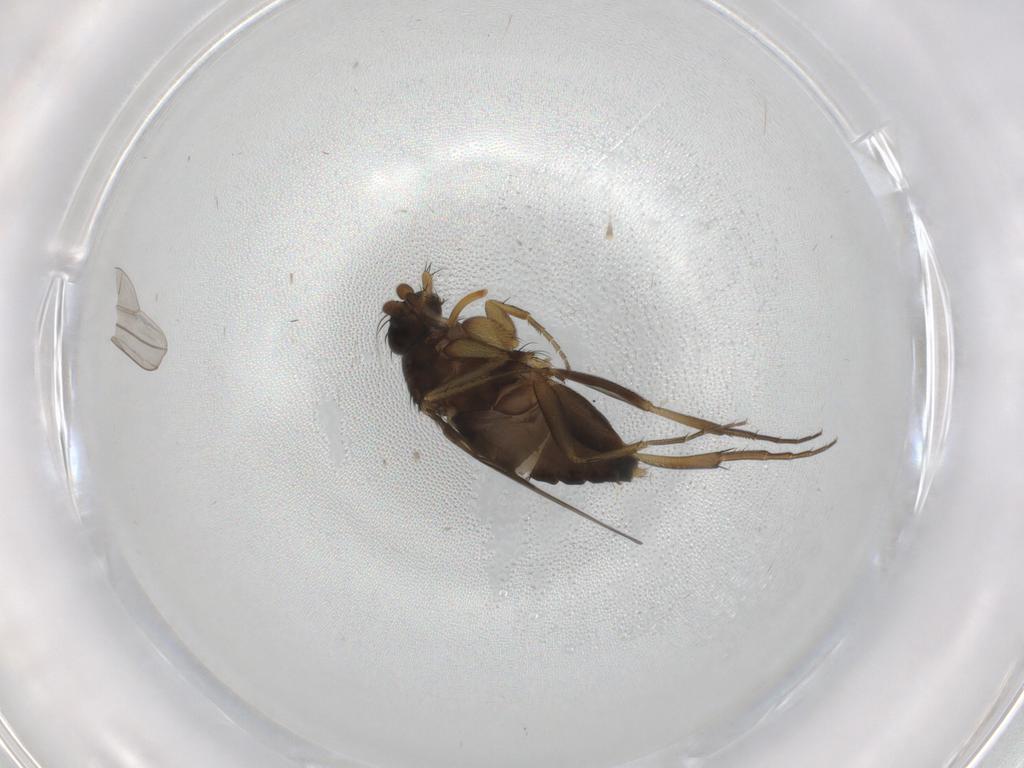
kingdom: Animalia
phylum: Arthropoda
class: Insecta
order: Diptera
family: Phoridae
